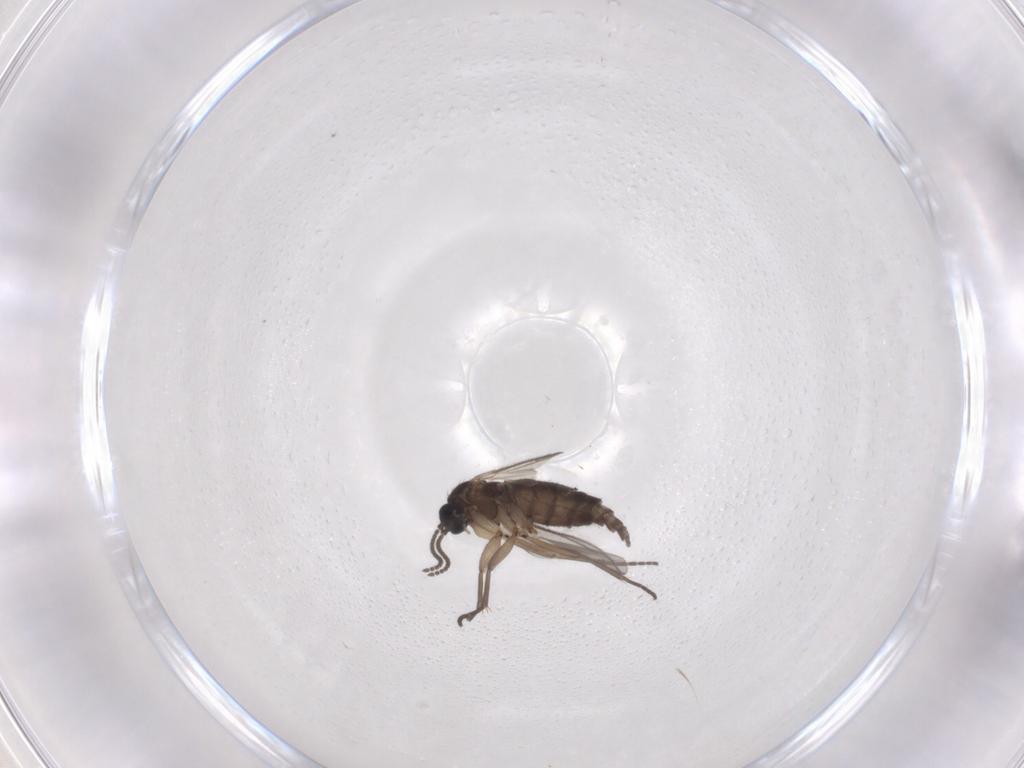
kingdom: Animalia
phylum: Arthropoda
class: Insecta
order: Diptera
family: Sciaridae
